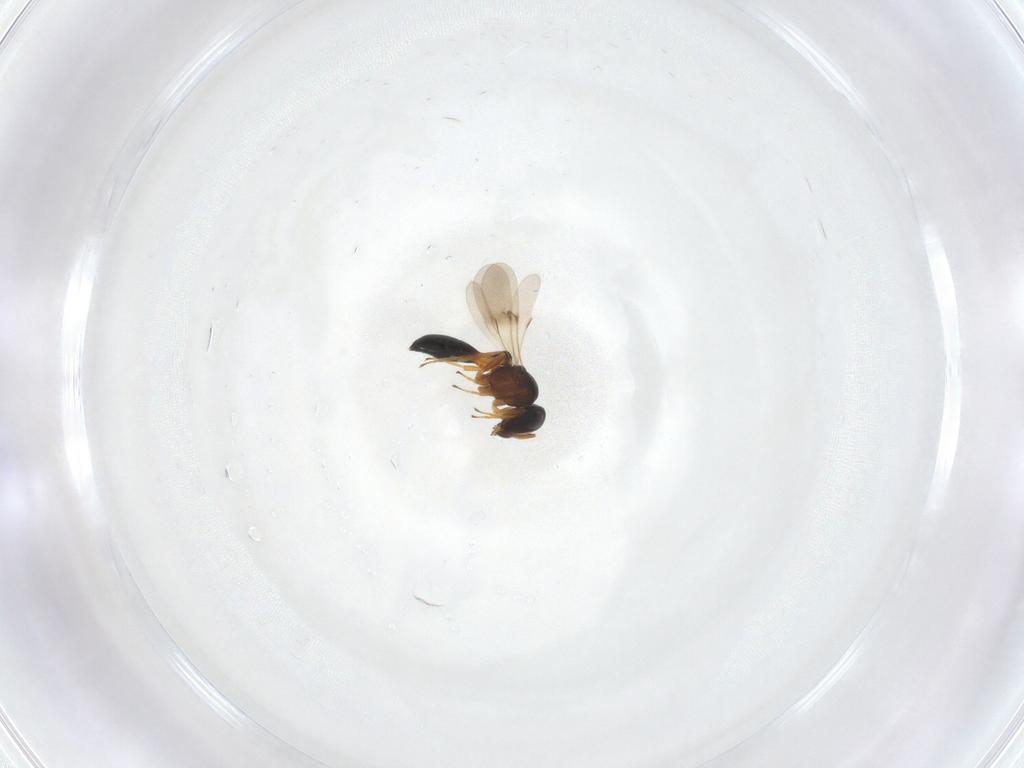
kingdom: Animalia
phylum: Arthropoda
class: Insecta
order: Hymenoptera
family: Scelionidae
